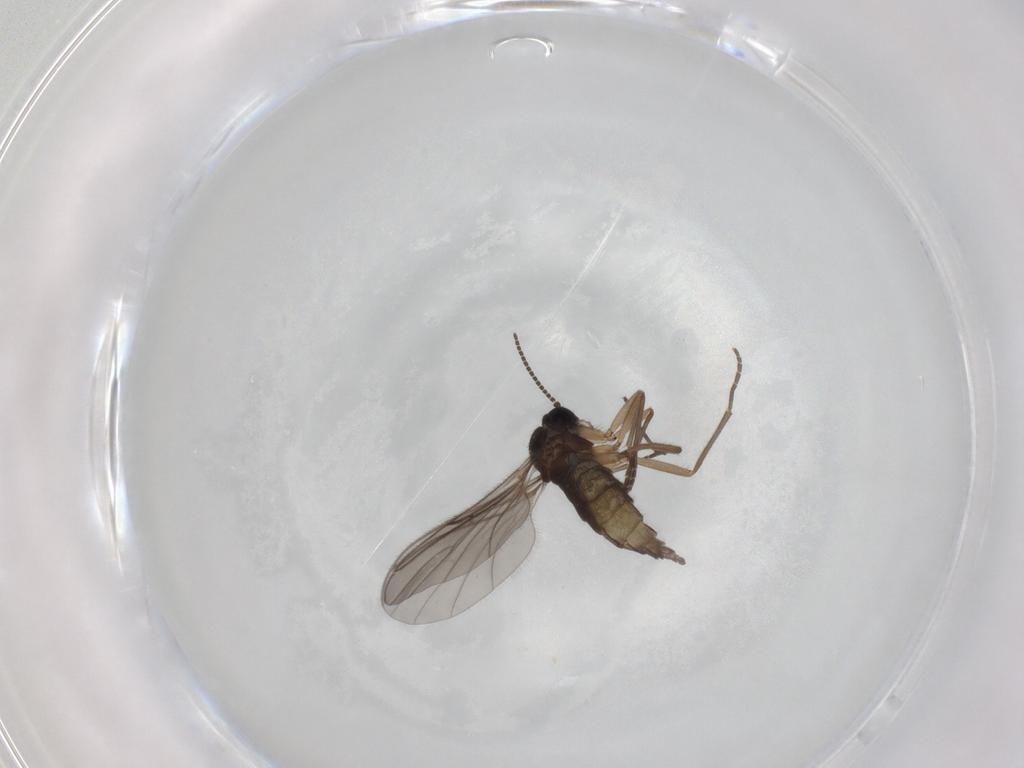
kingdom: Animalia
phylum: Arthropoda
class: Insecta
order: Diptera
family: Sciaridae
